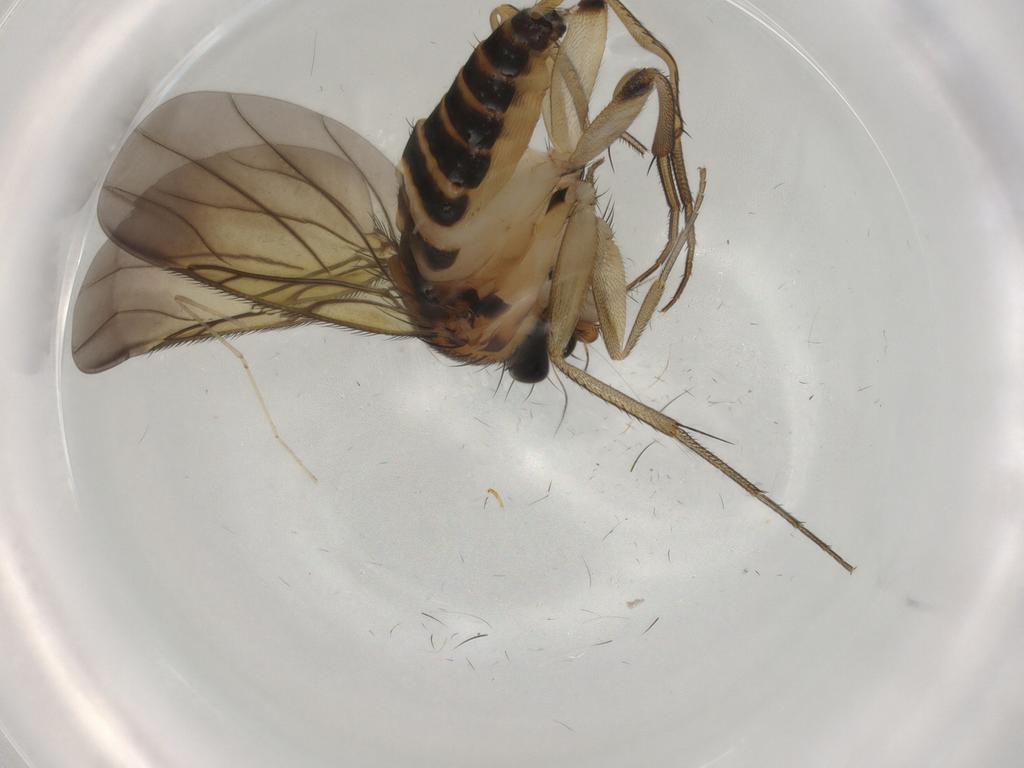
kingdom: Animalia
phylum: Arthropoda
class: Insecta
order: Diptera
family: Phoridae
